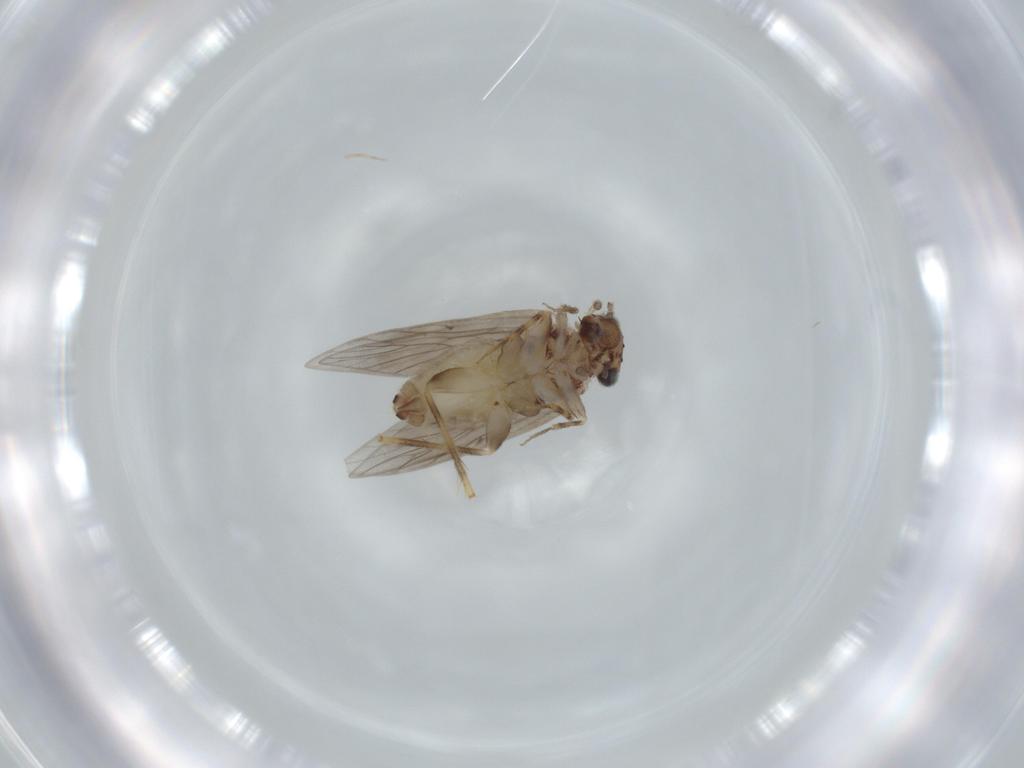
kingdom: Animalia
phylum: Arthropoda
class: Insecta
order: Psocodea
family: Lepidopsocidae
